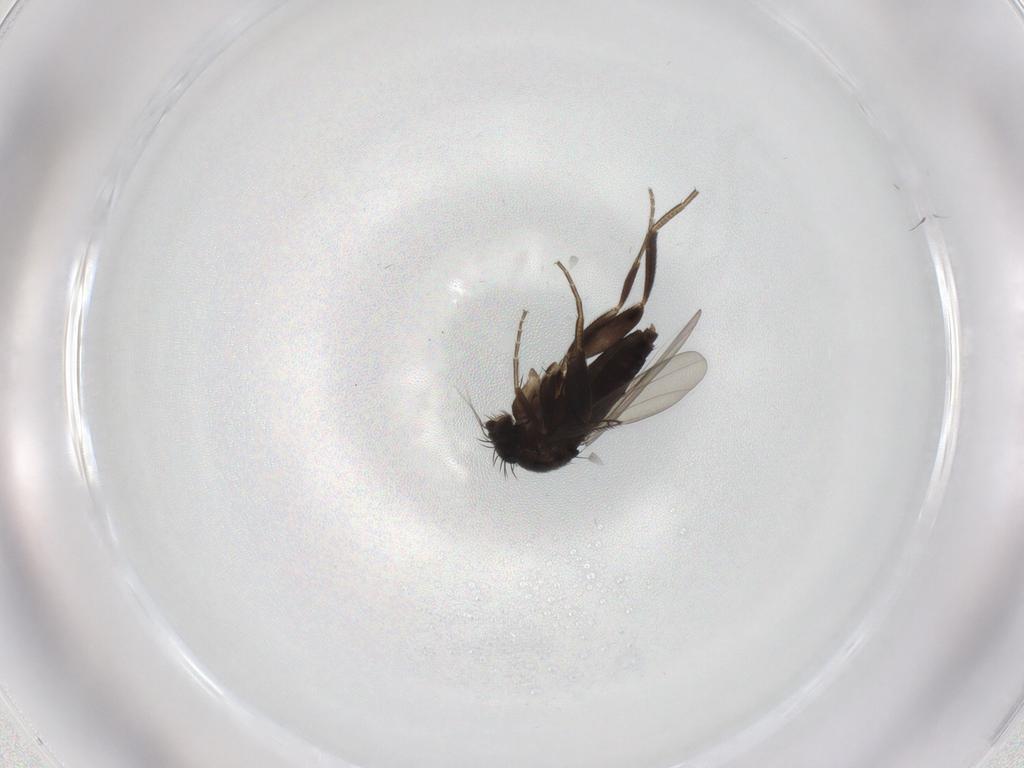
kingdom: Animalia
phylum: Arthropoda
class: Insecta
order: Diptera
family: Phoridae
